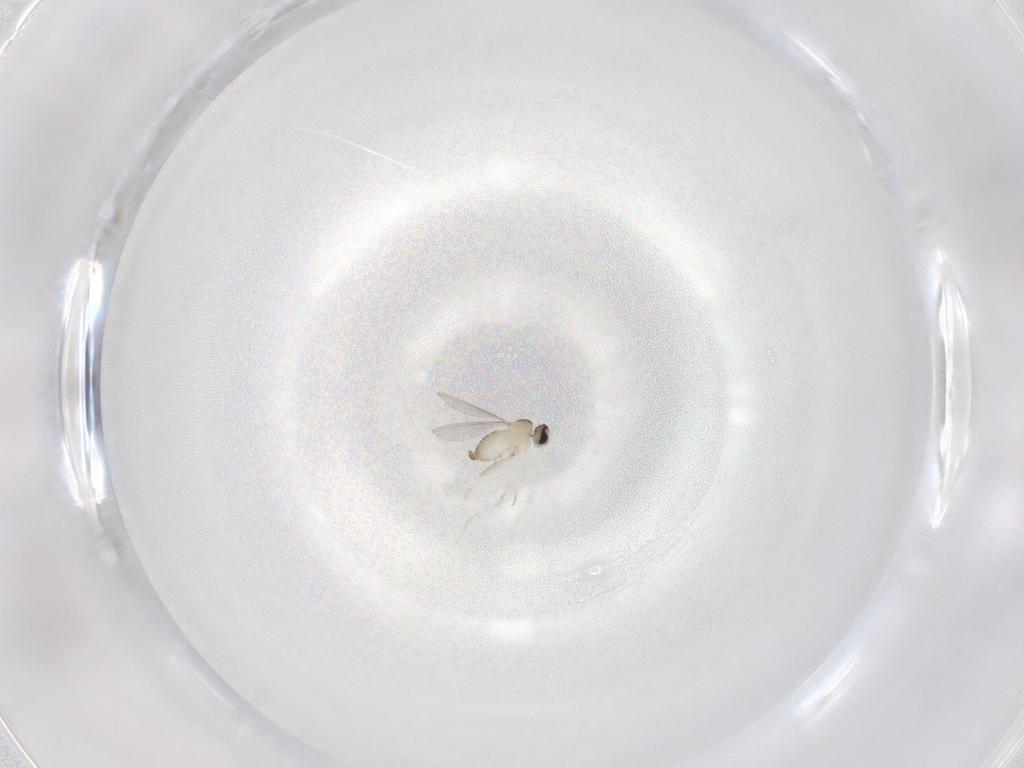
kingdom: Animalia
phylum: Arthropoda
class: Insecta
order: Diptera
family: Cecidomyiidae
